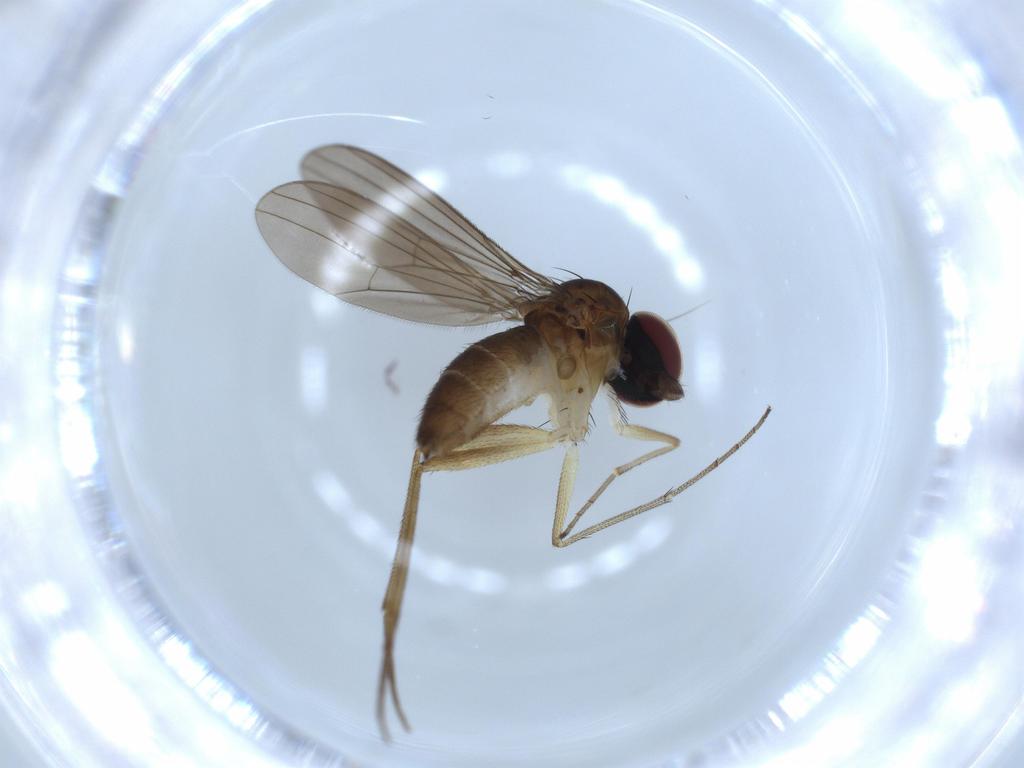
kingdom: Animalia
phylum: Arthropoda
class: Insecta
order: Diptera
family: Dolichopodidae
